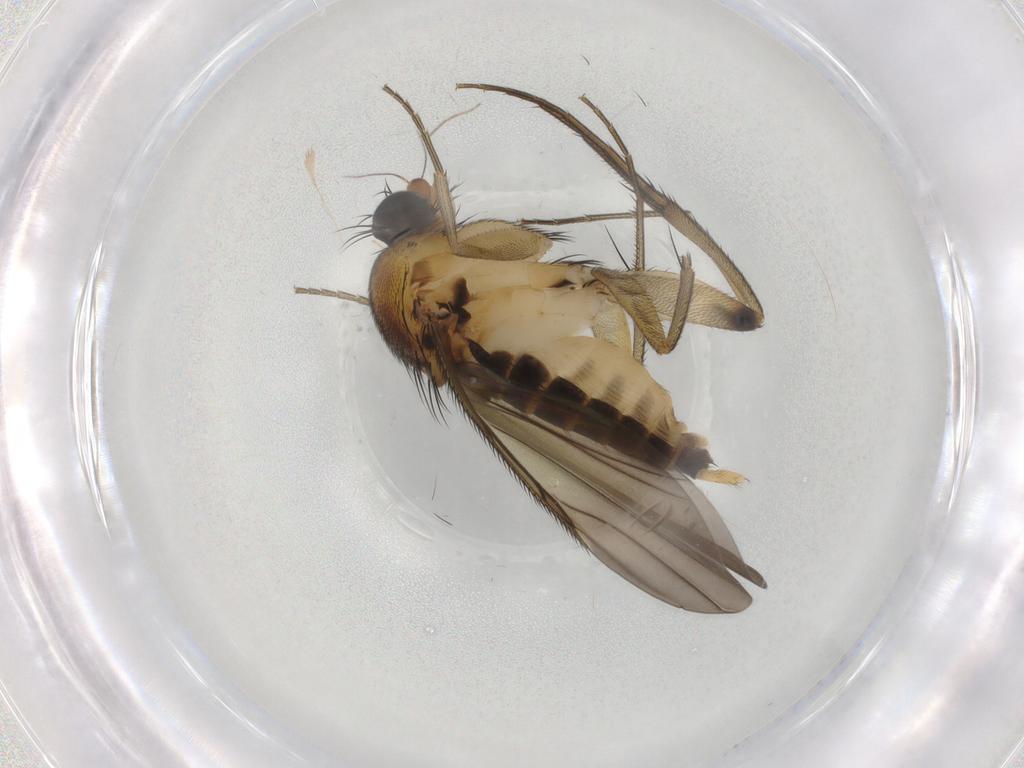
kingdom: Animalia
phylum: Arthropoda
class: Insecta
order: Diptera
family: Phoridae
